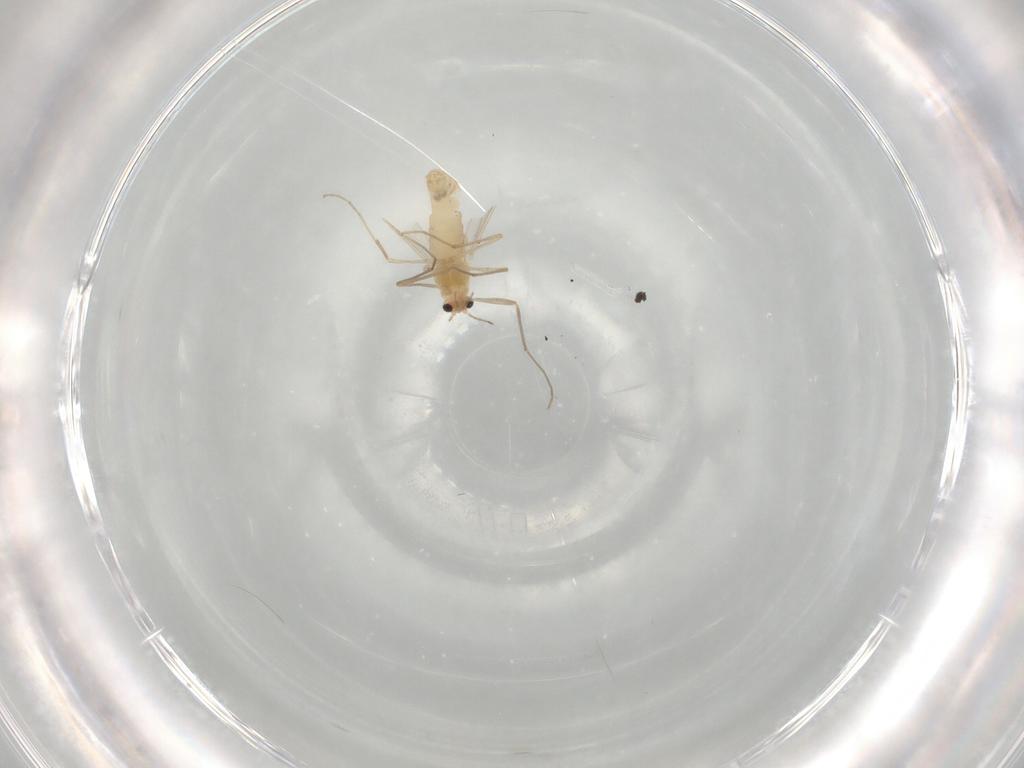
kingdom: Animalia
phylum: Arthropoda
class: Insecta
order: Diptera
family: Chironomidae
